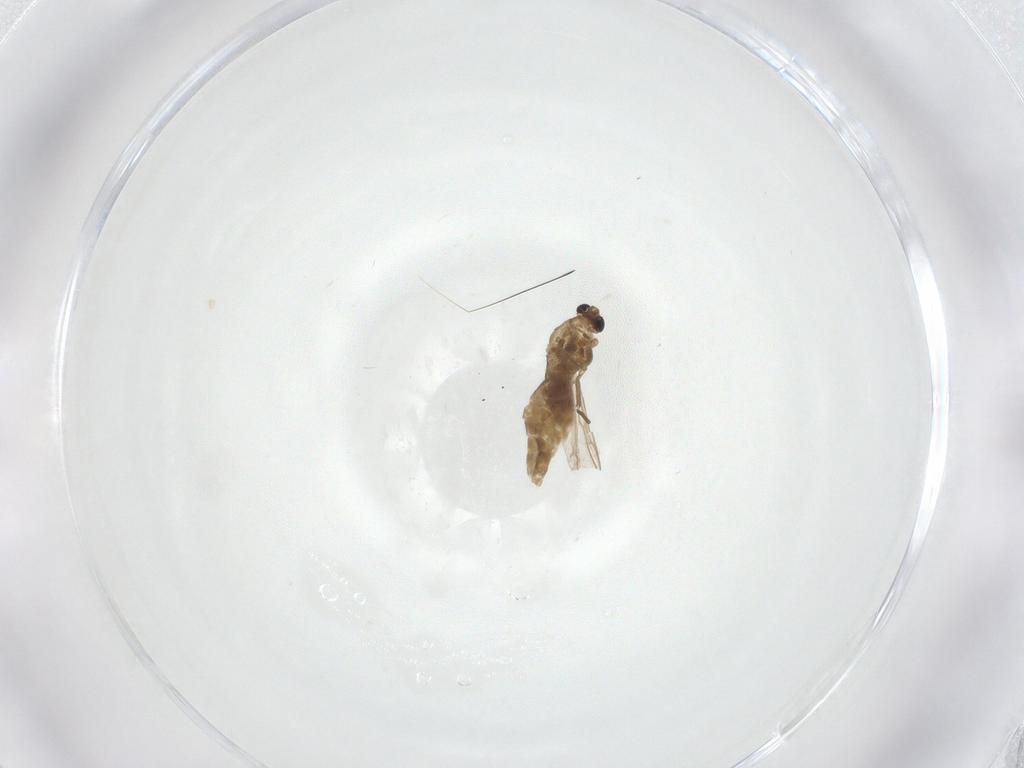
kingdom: Animalia
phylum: Arthropoda
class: Insecta
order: Diptera
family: Chironomidae
